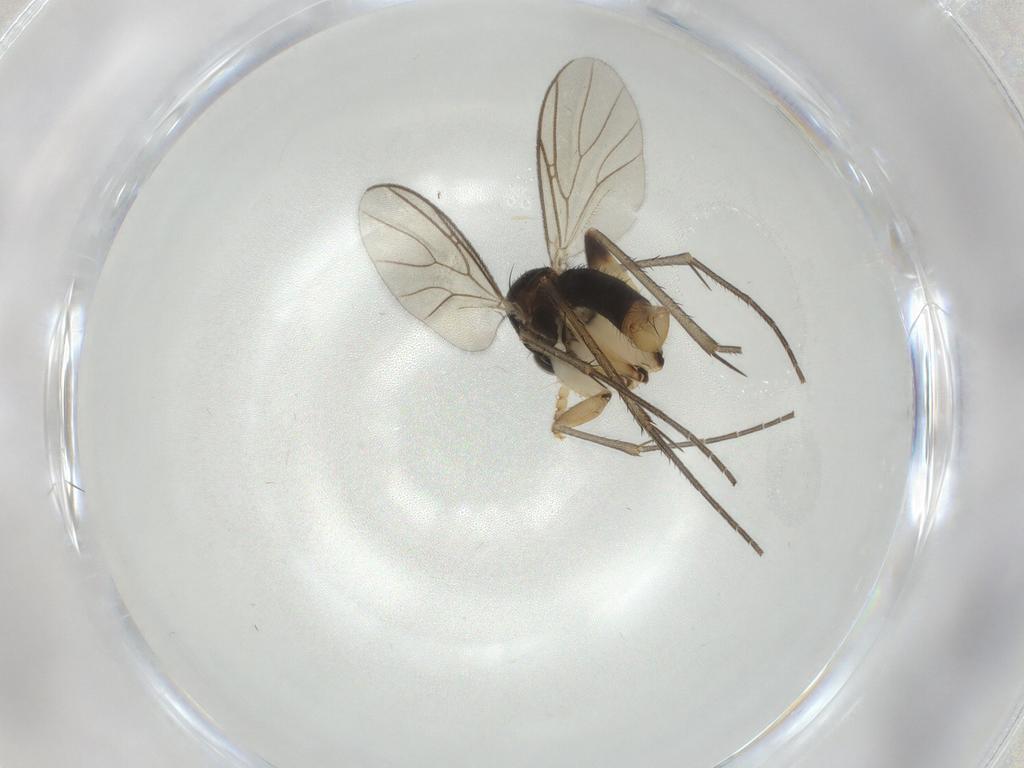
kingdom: Animalia
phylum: Arthropoda
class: Insecta
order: Diptera
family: Mycetophilidae
